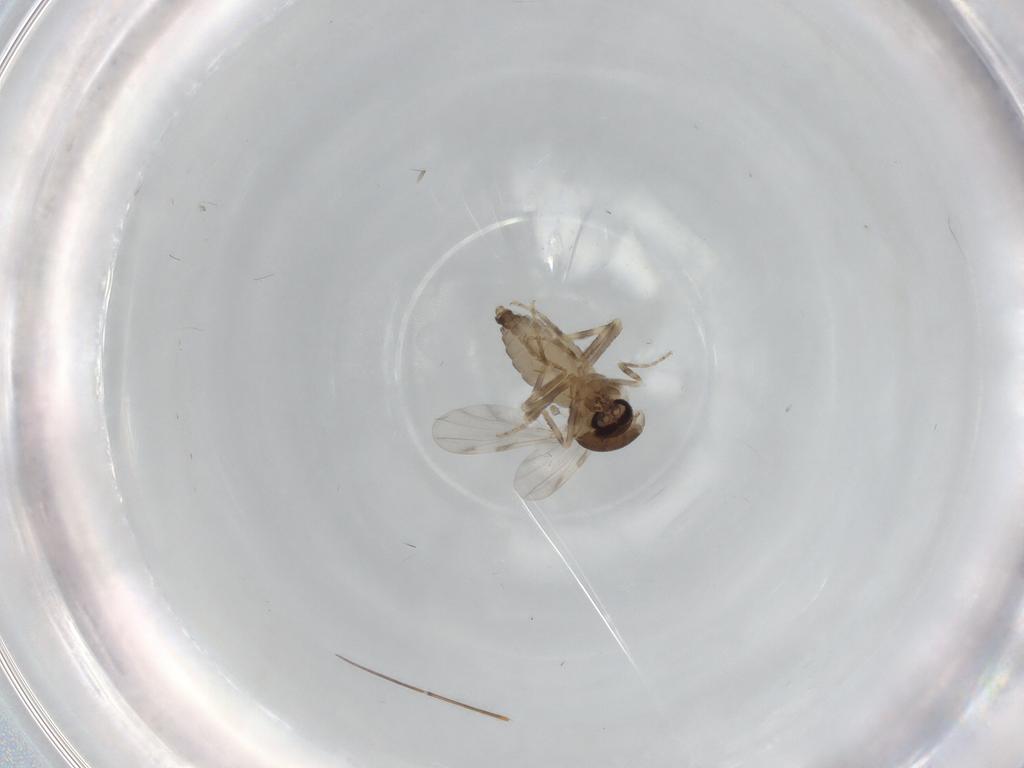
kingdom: Animalia
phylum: Arthropoda
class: Insecta
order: Diptera
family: Ceratopogonidae
